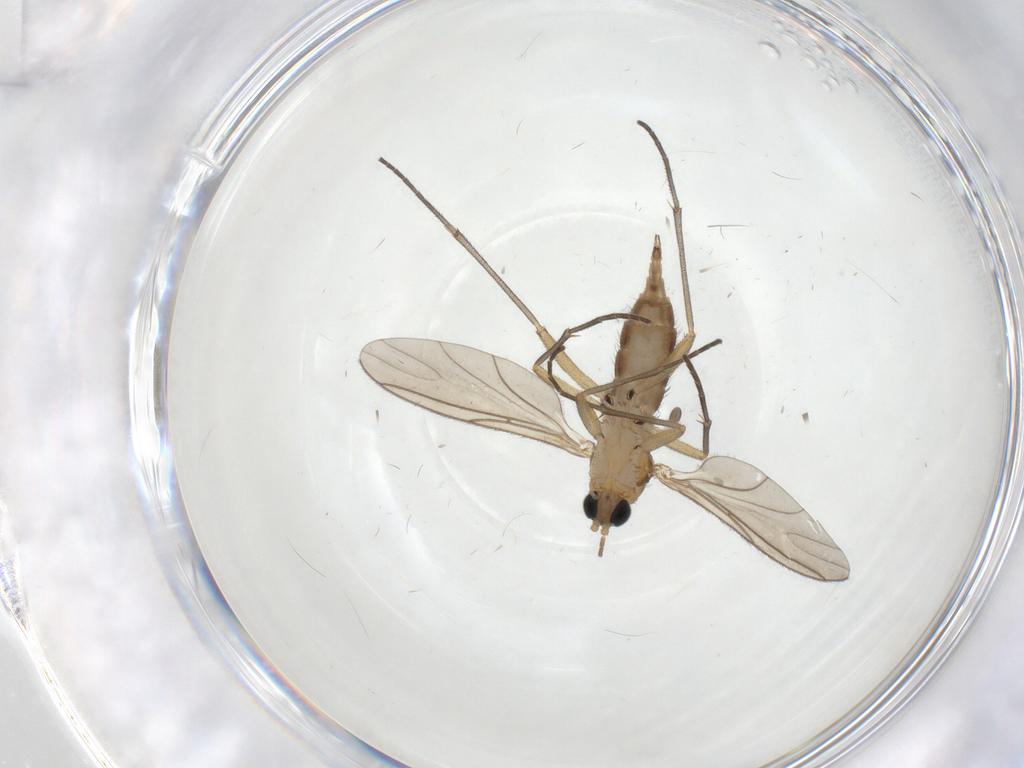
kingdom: Animalia
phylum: Arthropoda
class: Insecta
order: Diptera
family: Cecidomyiidae
